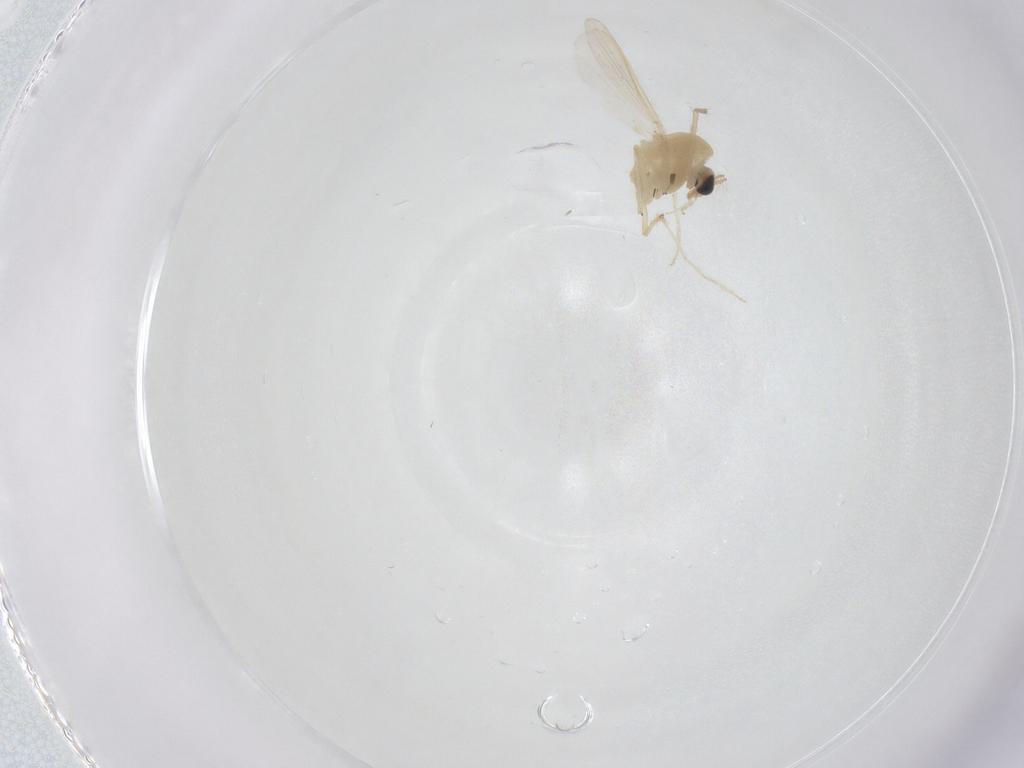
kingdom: Animalia
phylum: Arthropoda
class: Insecta
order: Diptera
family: Chironomidae
